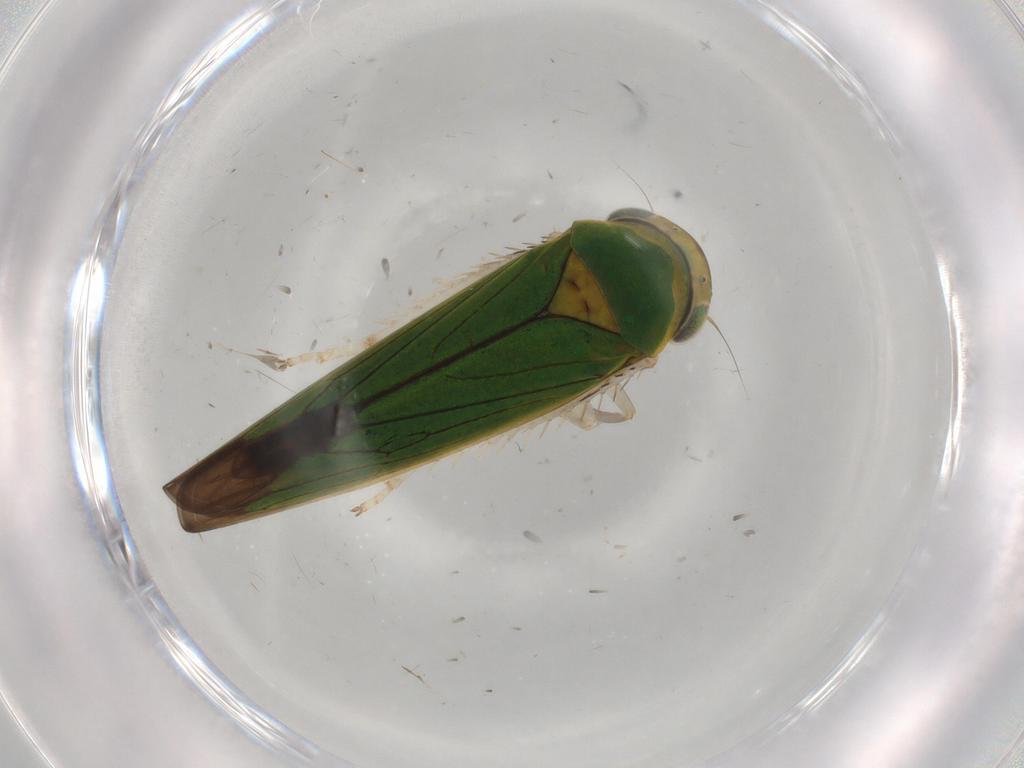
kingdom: Animalia
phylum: Arthropoda
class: Insecta
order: Hemiptera
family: Cicadellidae
